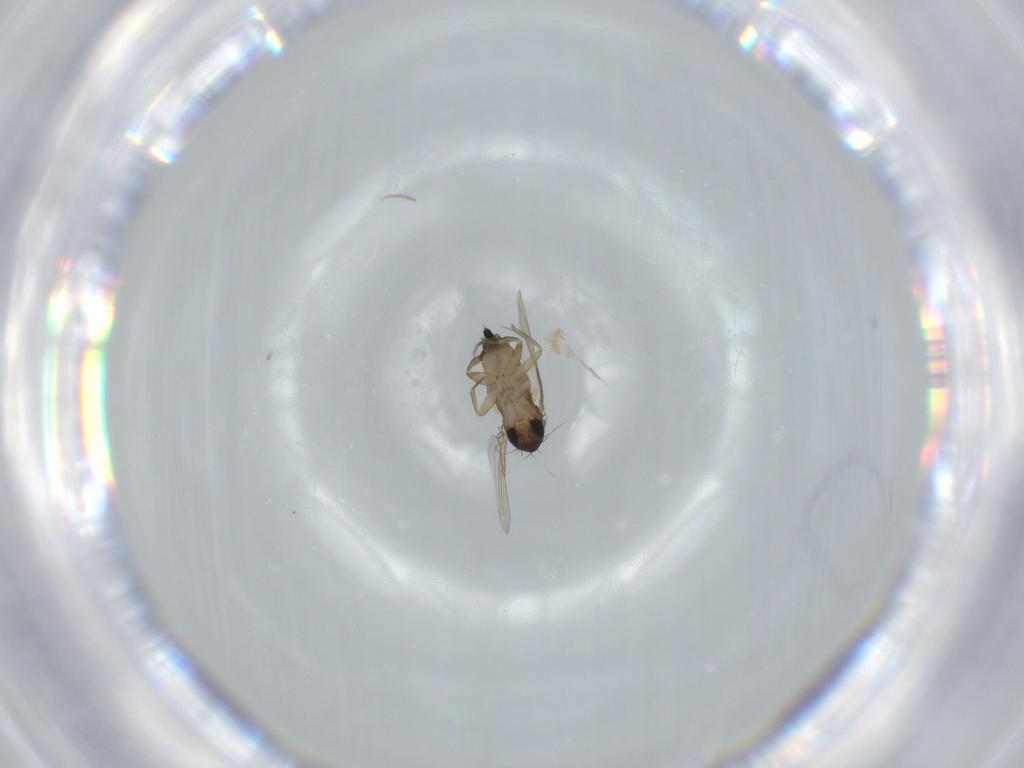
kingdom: Animalia
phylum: Arthropoda
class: Insecta
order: Diptera
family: Phoridae
